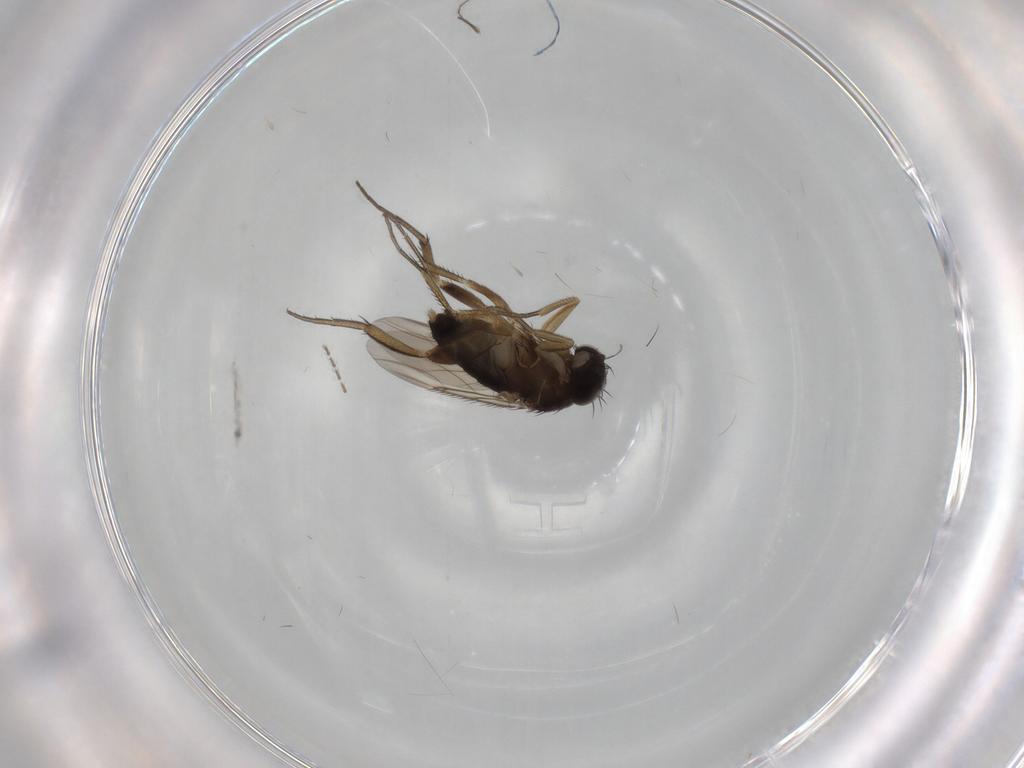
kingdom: Animalia
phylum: Arthropoda
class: Insecta
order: Diptera
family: Phoridae
